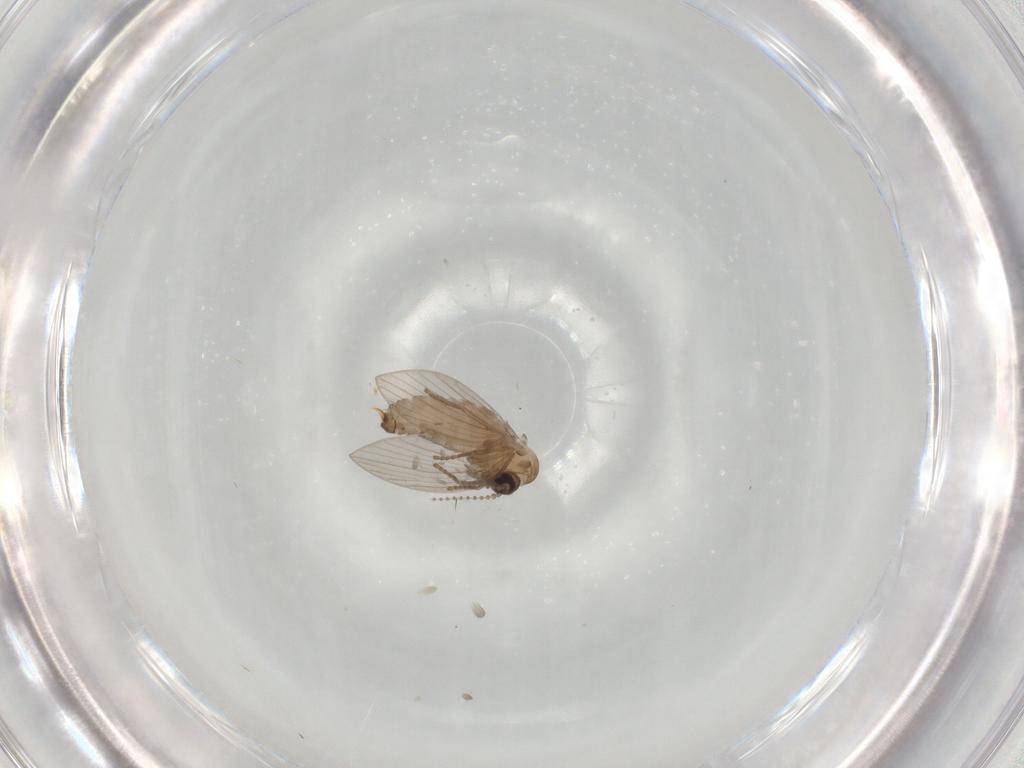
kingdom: Animalia
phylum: Arthropoda
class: Insecta
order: Diptera
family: Psychodidae
